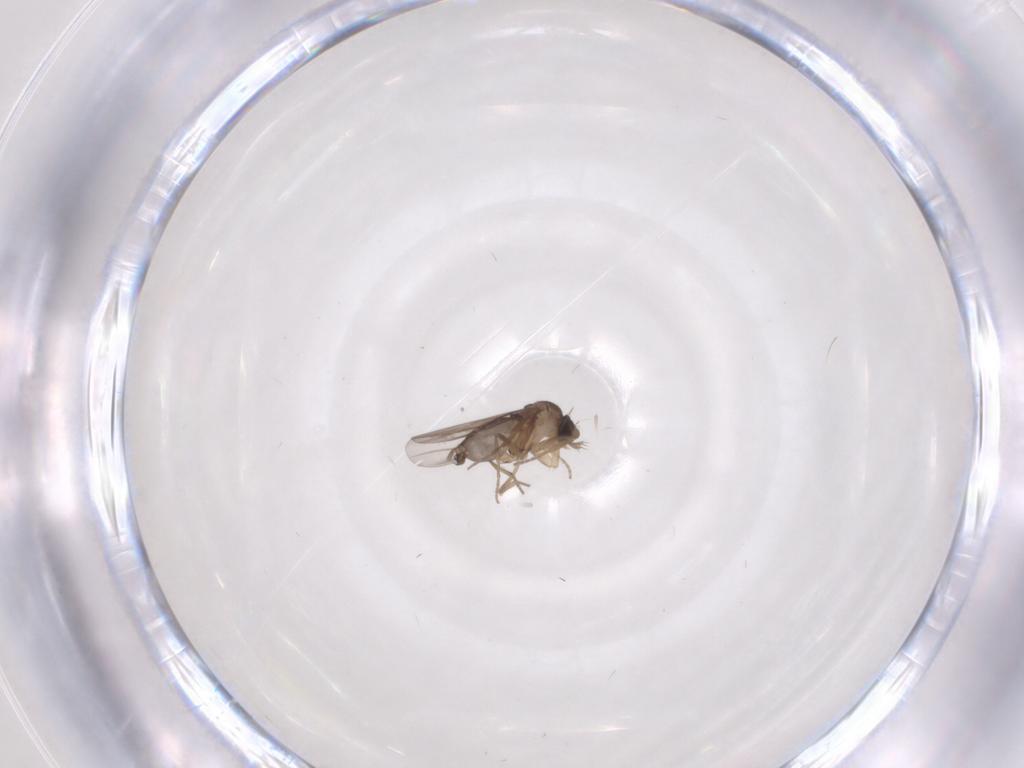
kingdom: Animalia
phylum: Arthropoda
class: Insecta
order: Diptera
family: Phoridae
